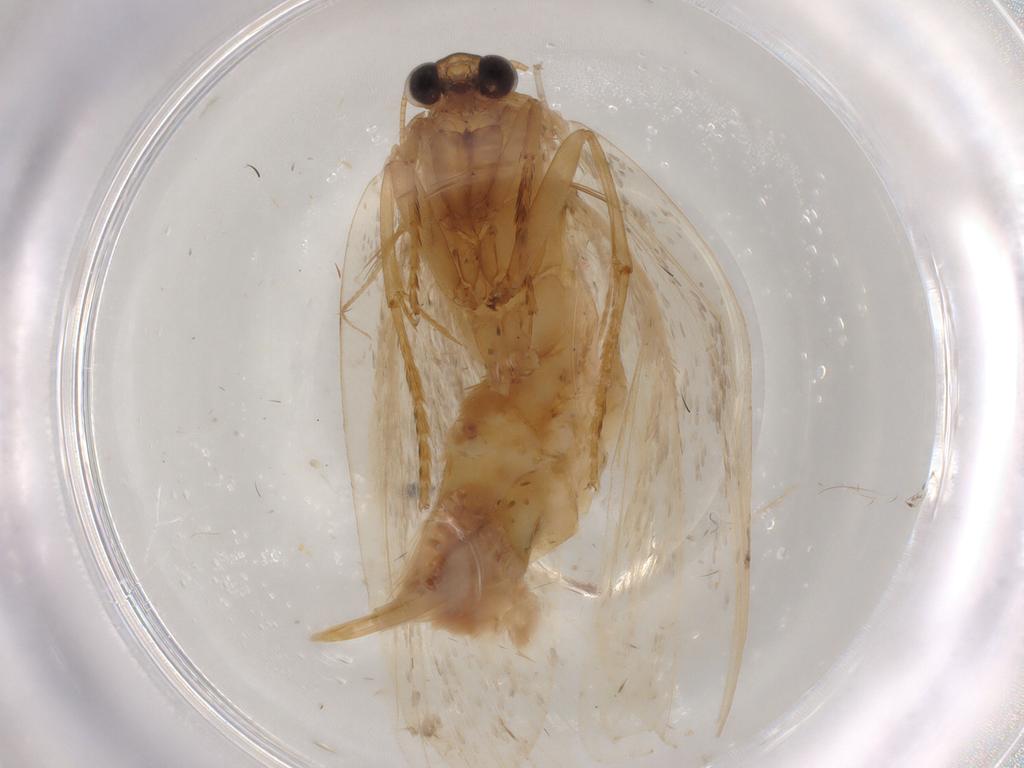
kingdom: Animalia
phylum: Arthropoda
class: Insecta
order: Lepidoptera
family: Psychidae
